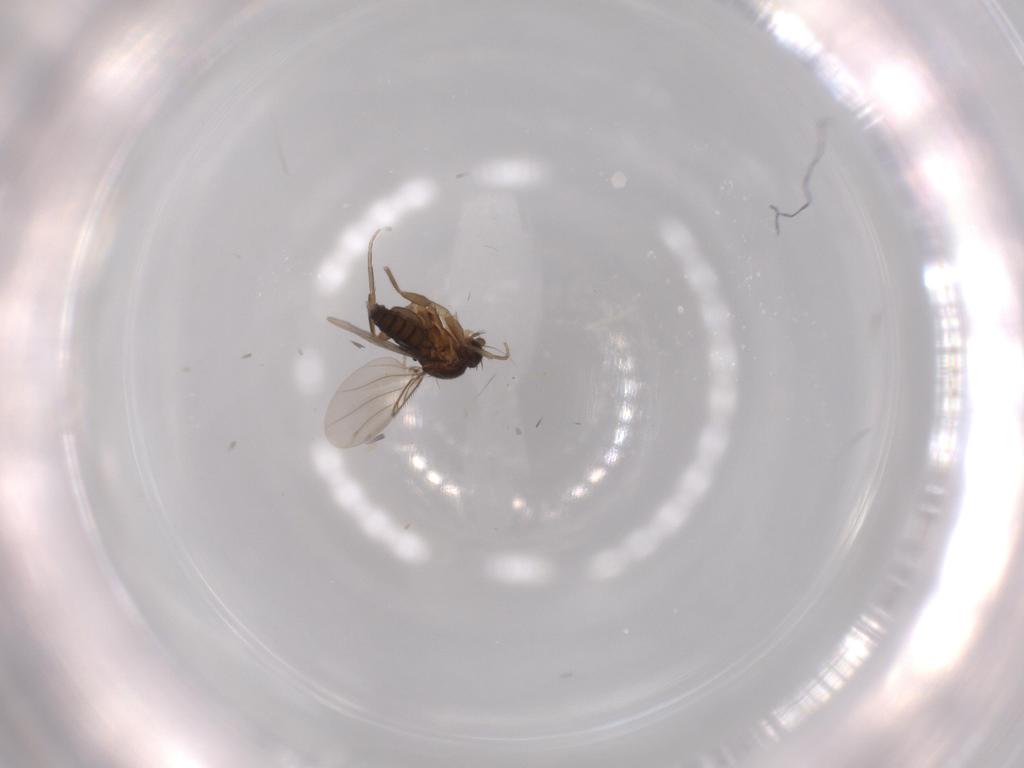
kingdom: Animalia
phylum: Arthropoda
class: Insecta
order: Diptera
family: Phoridae
